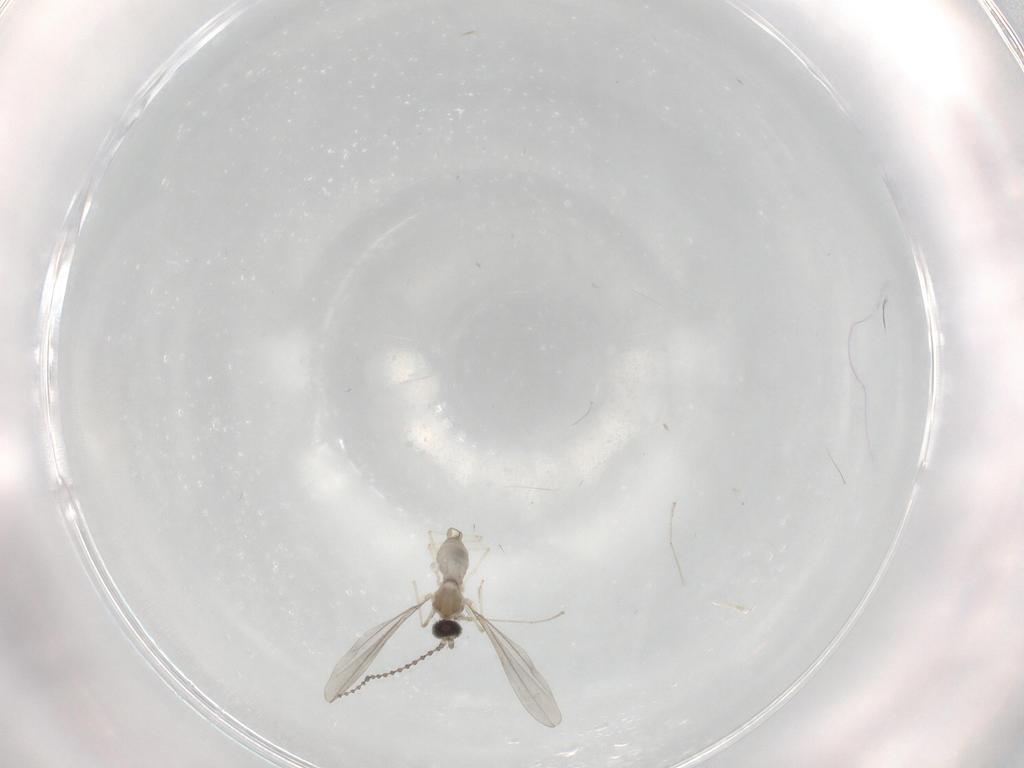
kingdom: Animalia
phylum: Arthropoda
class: Insecta
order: Diptera
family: Cecidomyiidae
